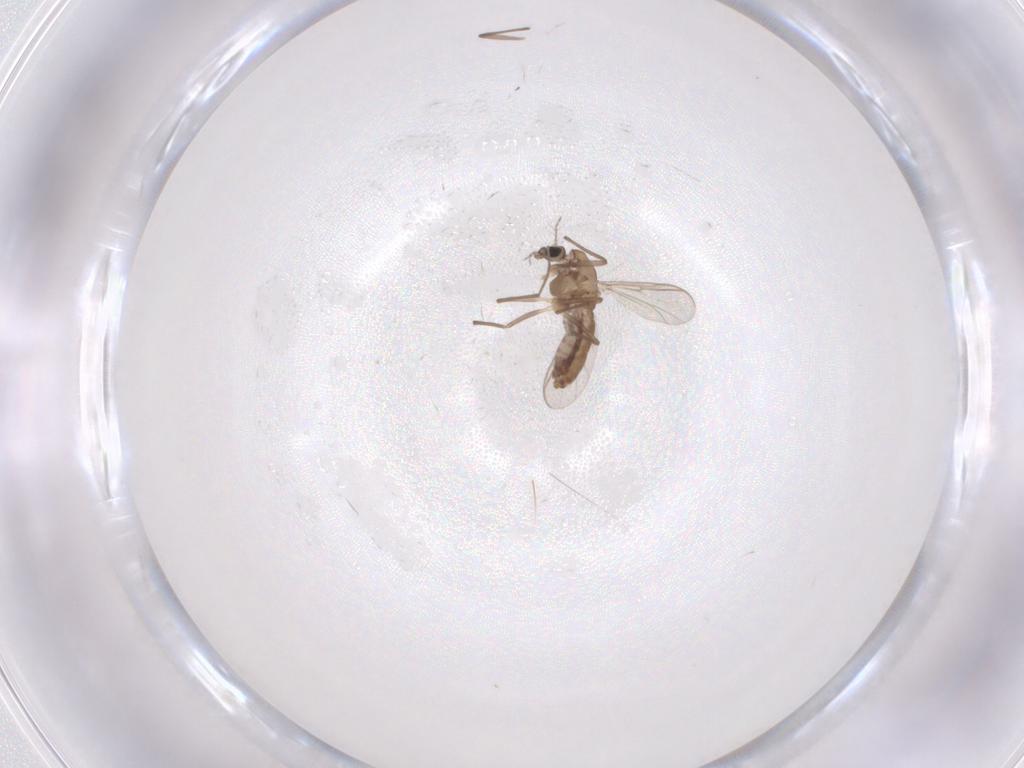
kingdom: Animalia
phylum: Arthropoda
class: Insecta
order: Diptera
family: Chironomidae
